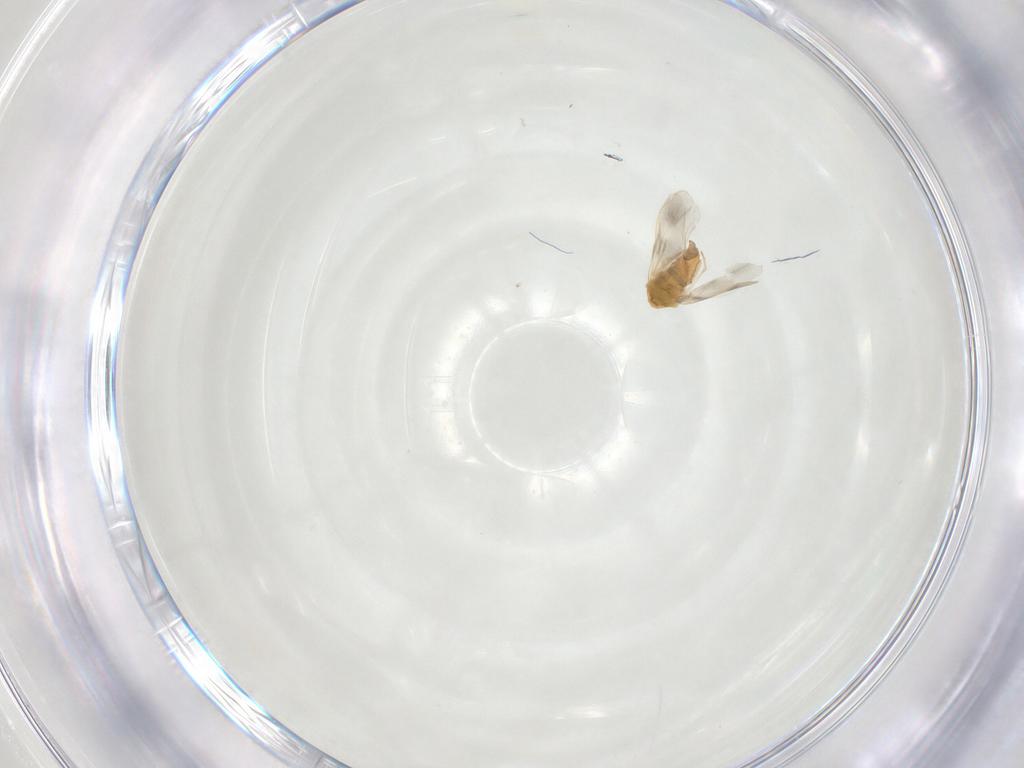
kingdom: Animalia
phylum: Arthropoda
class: Insecta
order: Hemiptera
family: Aleyrodidae
